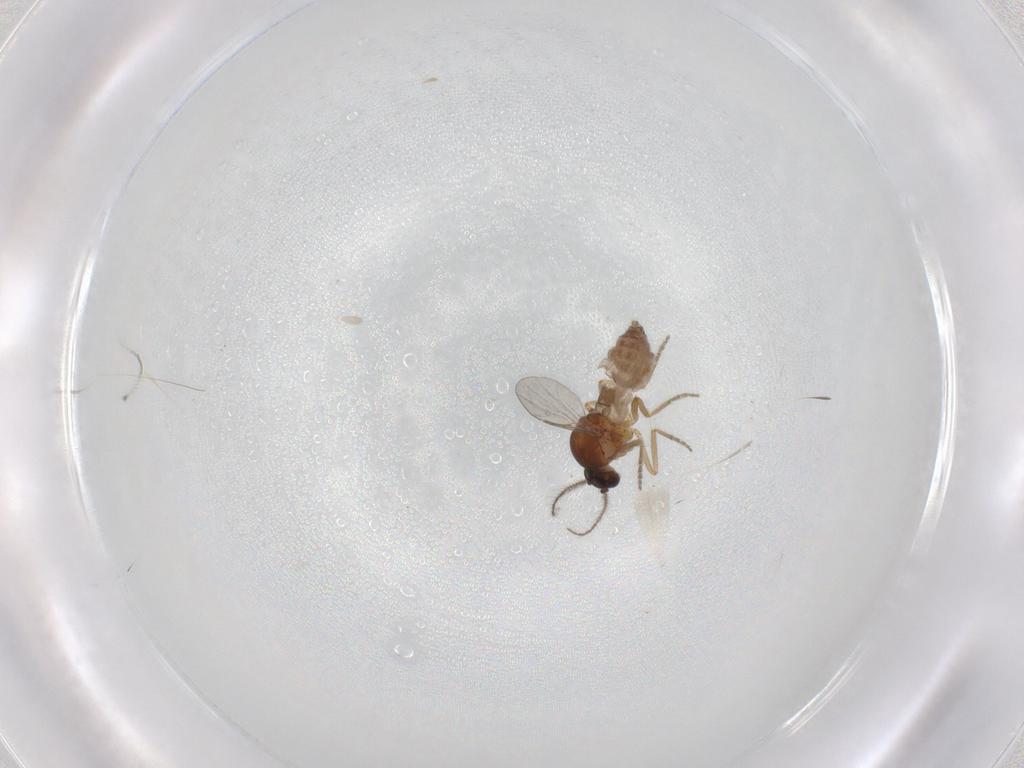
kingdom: Animalia
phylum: Arthropoda
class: Insecta
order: Diptera
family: Ceratopogonidae
